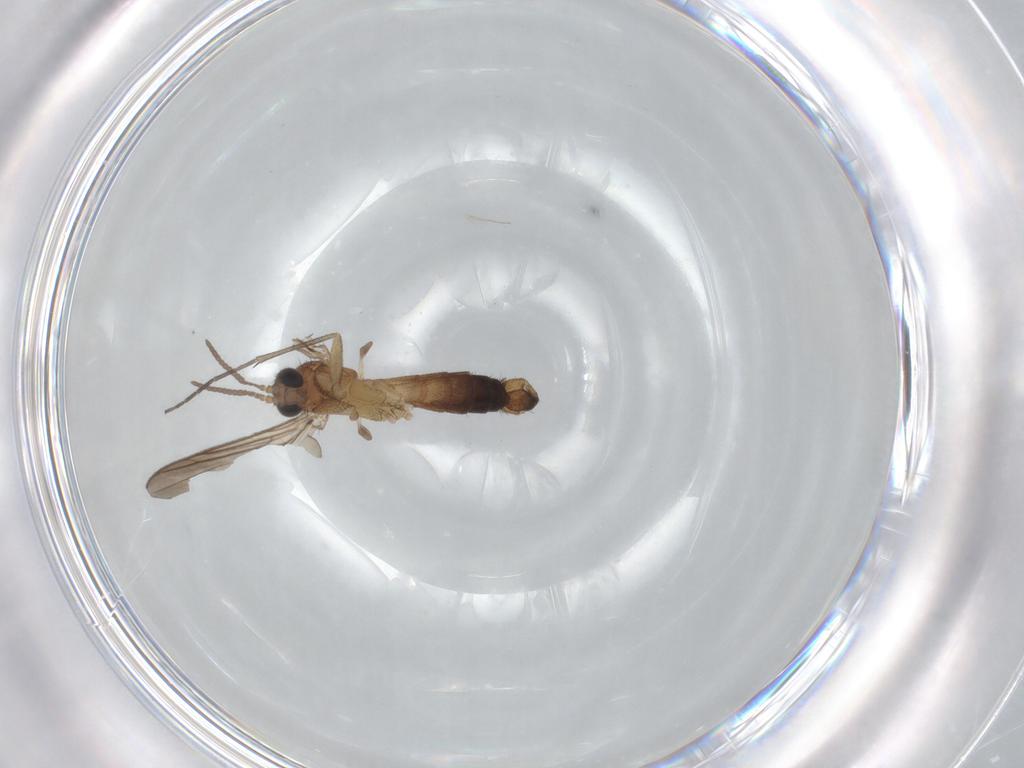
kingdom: Animalia
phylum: Arthropoda
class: Insecta
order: Diptera
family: Keroplatidae
